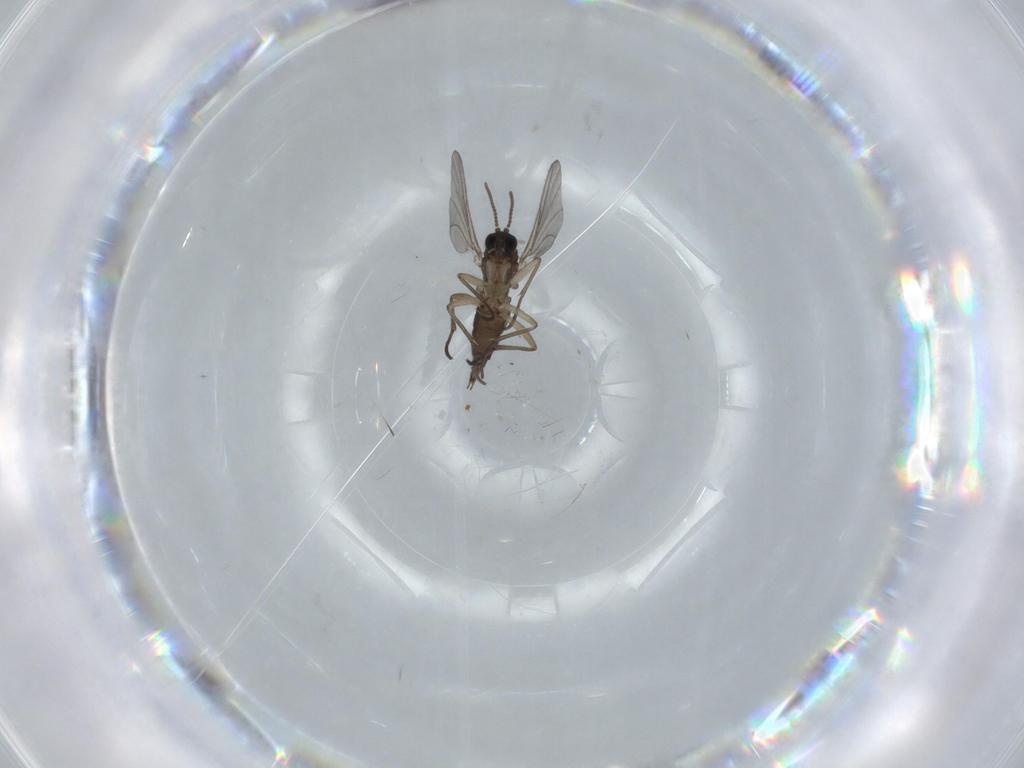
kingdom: Animalia
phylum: Arthropoda
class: Insecta
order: Diptera
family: Sciaridae
